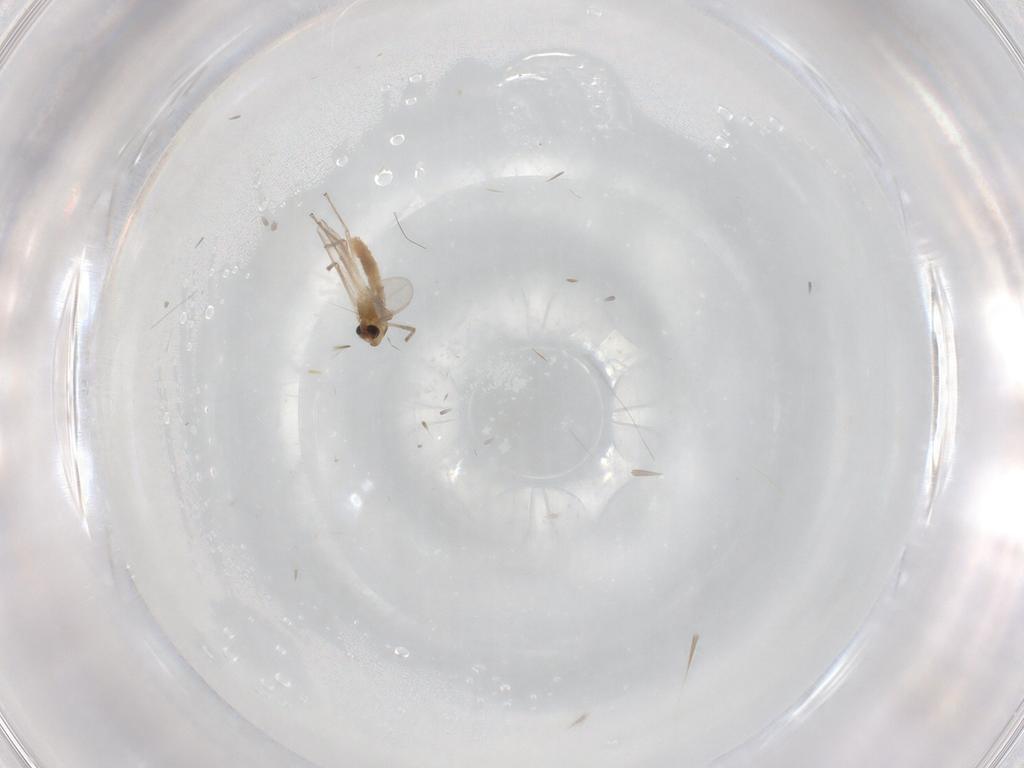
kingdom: Animalia
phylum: Arthropoda
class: Insecta
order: Diptera
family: Chironomidae
